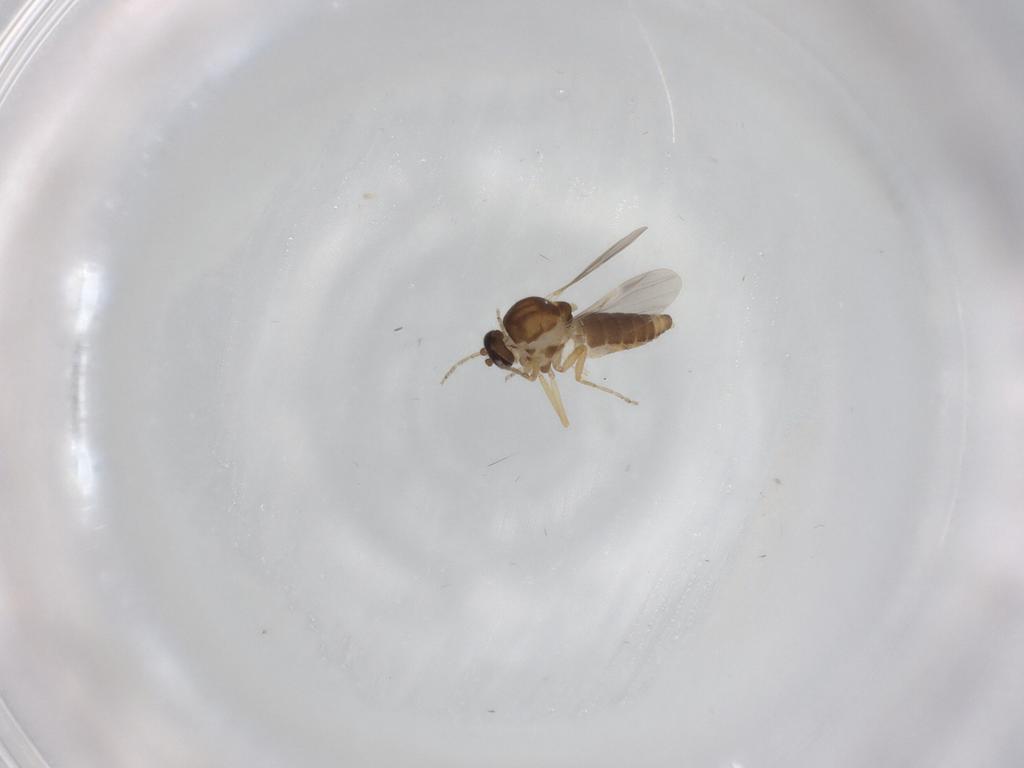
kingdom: Animalia
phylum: Arthropoda
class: Insecta
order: Diptera
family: Ceratopogonidae
